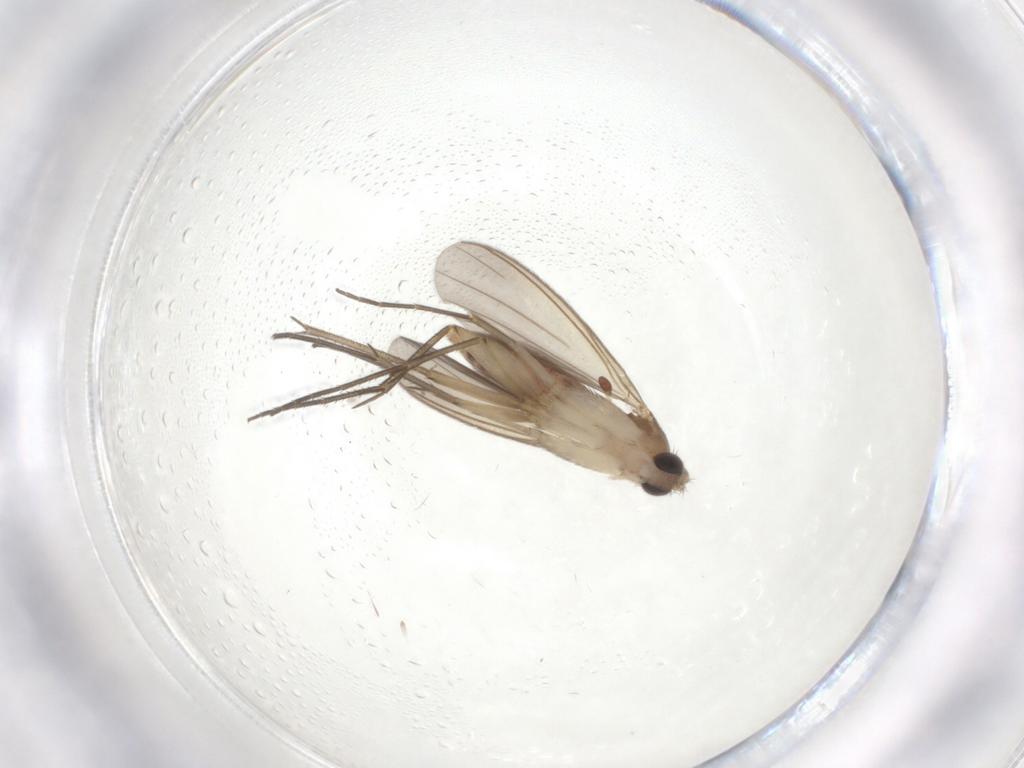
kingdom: Animalia
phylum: Arthropoda
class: Insecta
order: Diptera
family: Mycetophilidae
